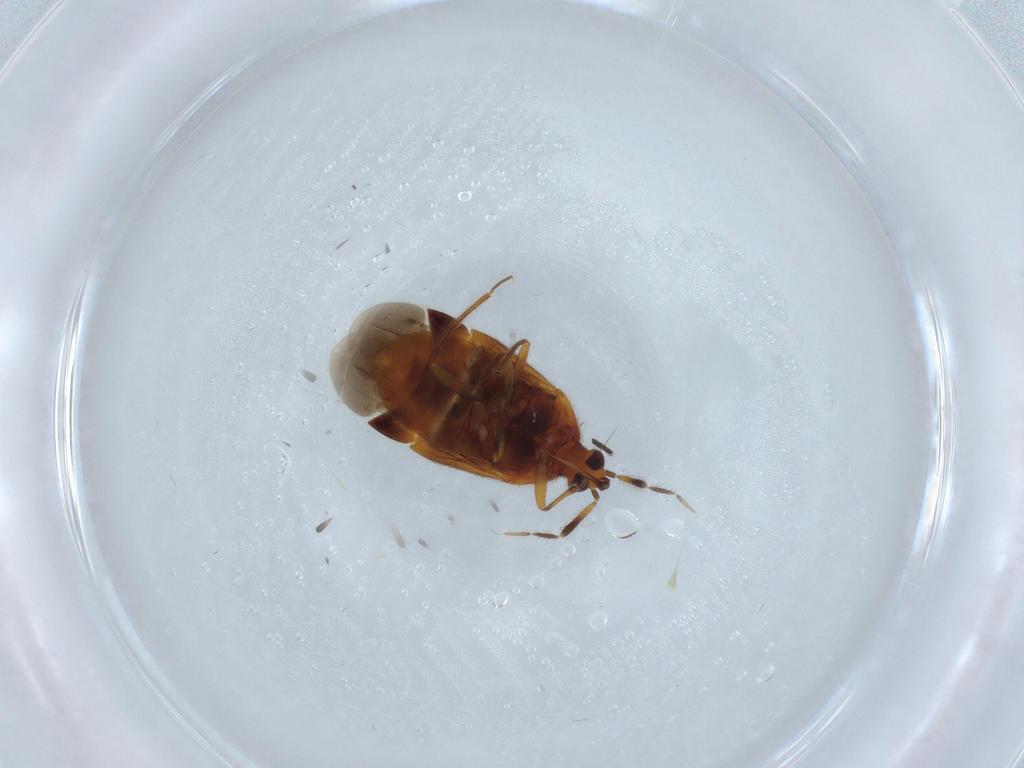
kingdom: Animalia
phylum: Arthropoda
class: Insecta
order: Hemiptera
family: Anthocoridae
